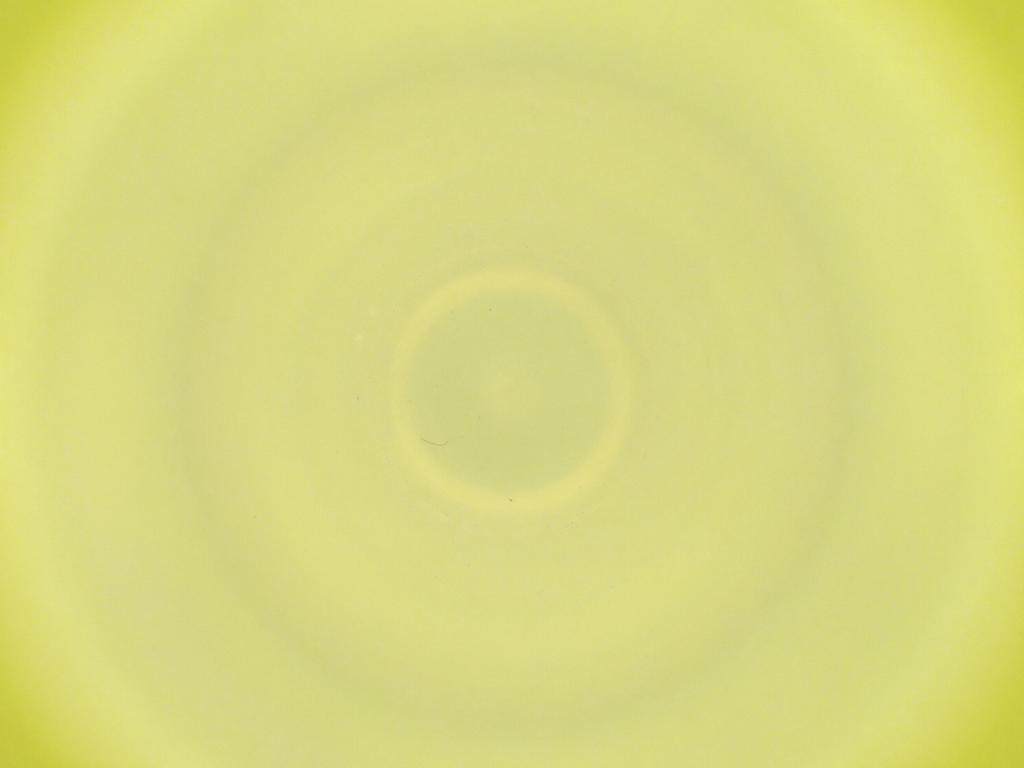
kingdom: Animalia
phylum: Arthropoda
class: Insecta
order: Diptera
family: Cecidomyiidae
